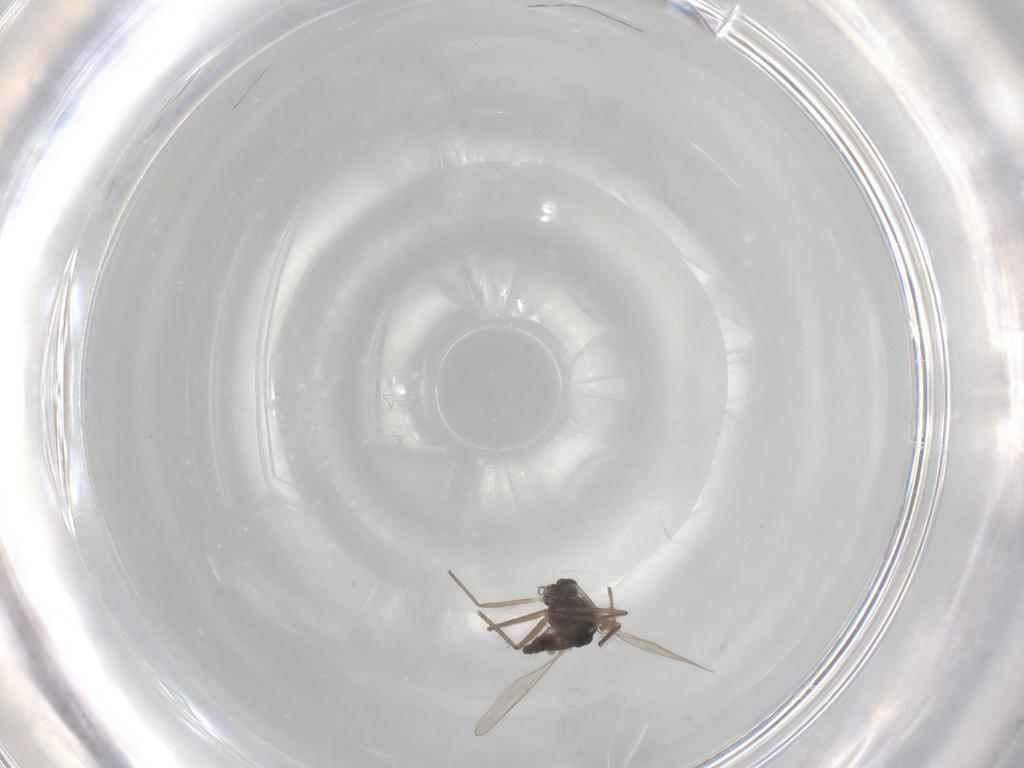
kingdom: Animalia
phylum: Arthropoda
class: Insecta
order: Diptera
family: Chironomidae
